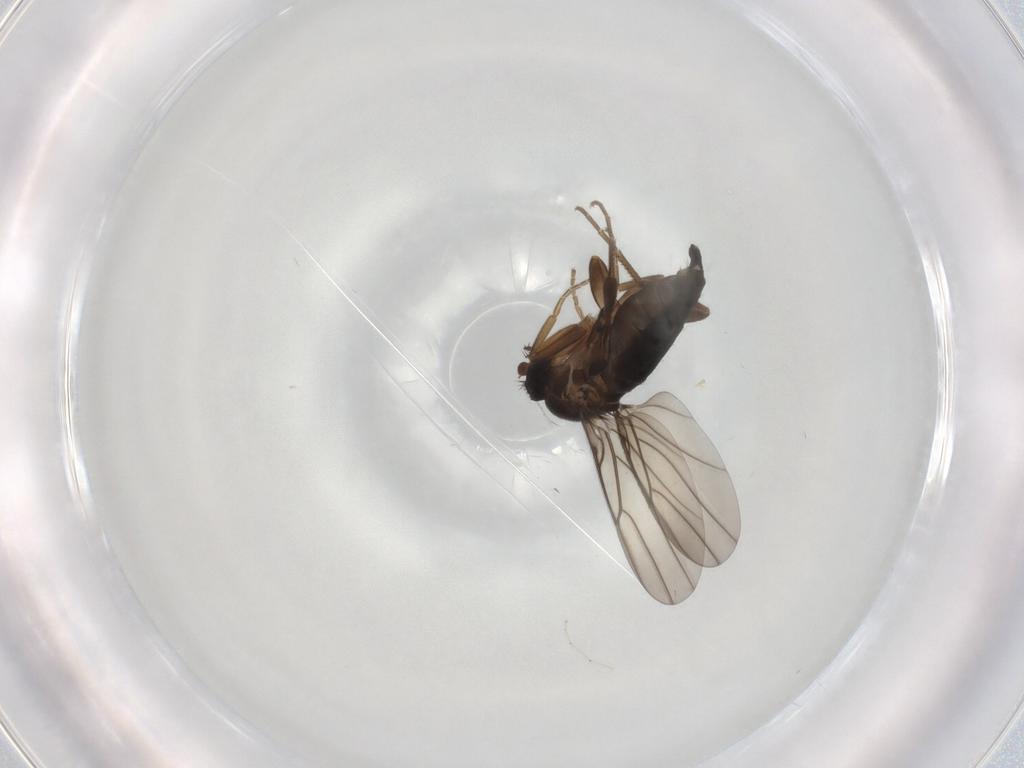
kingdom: Animalia
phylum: Arthropoda
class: Insecta
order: Diptera
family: Phoridae
